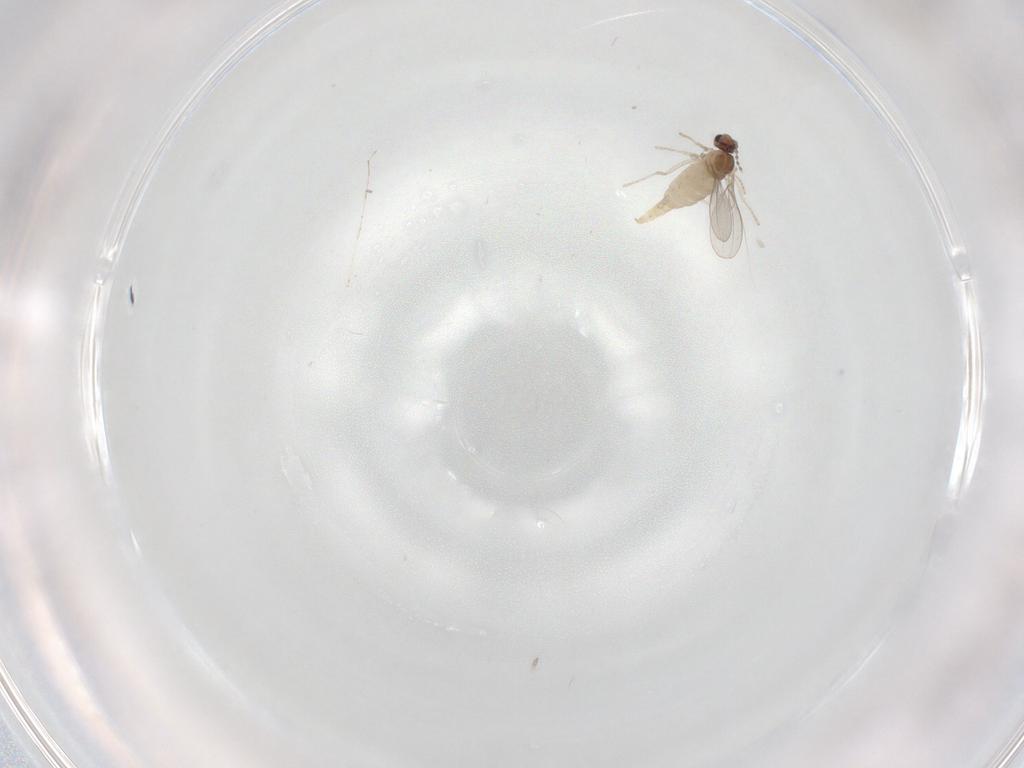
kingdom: Animalia
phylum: Arthropoda
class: Insecta
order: Diptera
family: Cecidomyiidae
